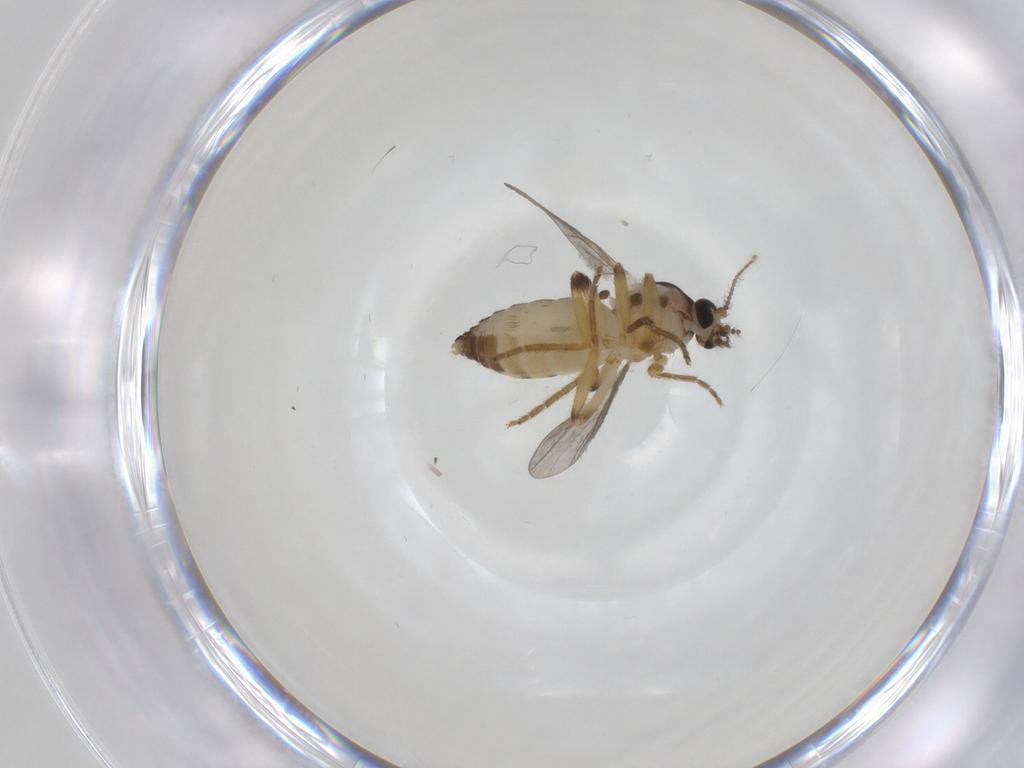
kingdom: Animalia
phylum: Arthropoda
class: Insecta
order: Diptera
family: Ceratopogonidae
